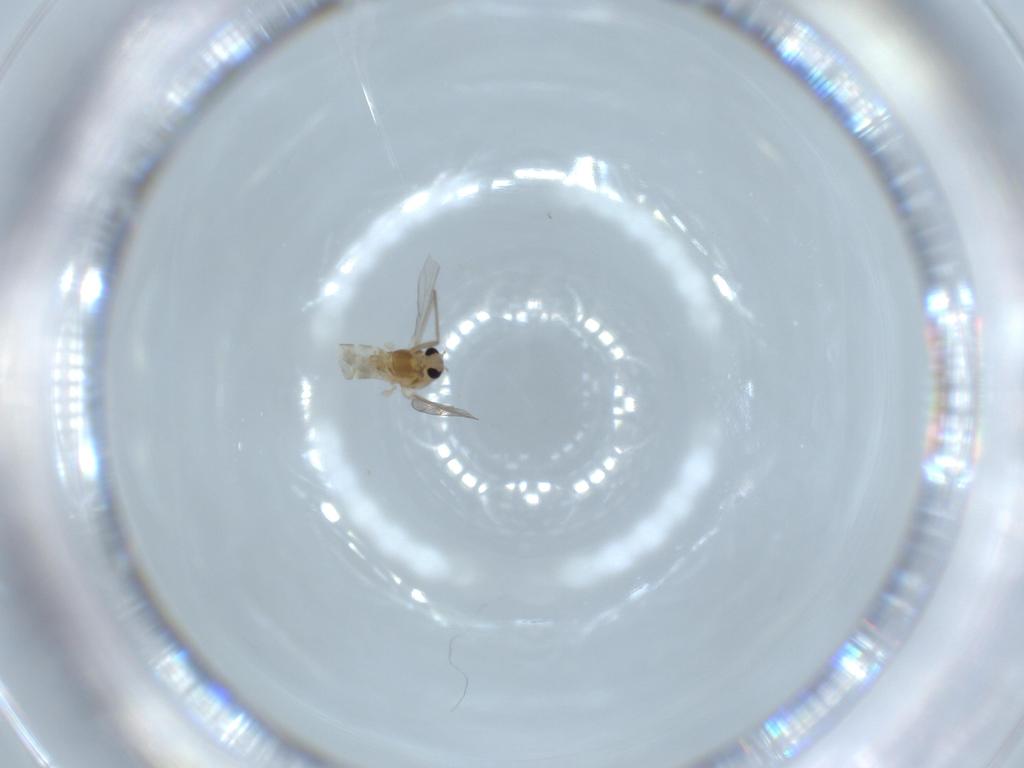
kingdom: Animalia
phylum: Arthropoda
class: Insecta
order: Diptera
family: Chironomidae
